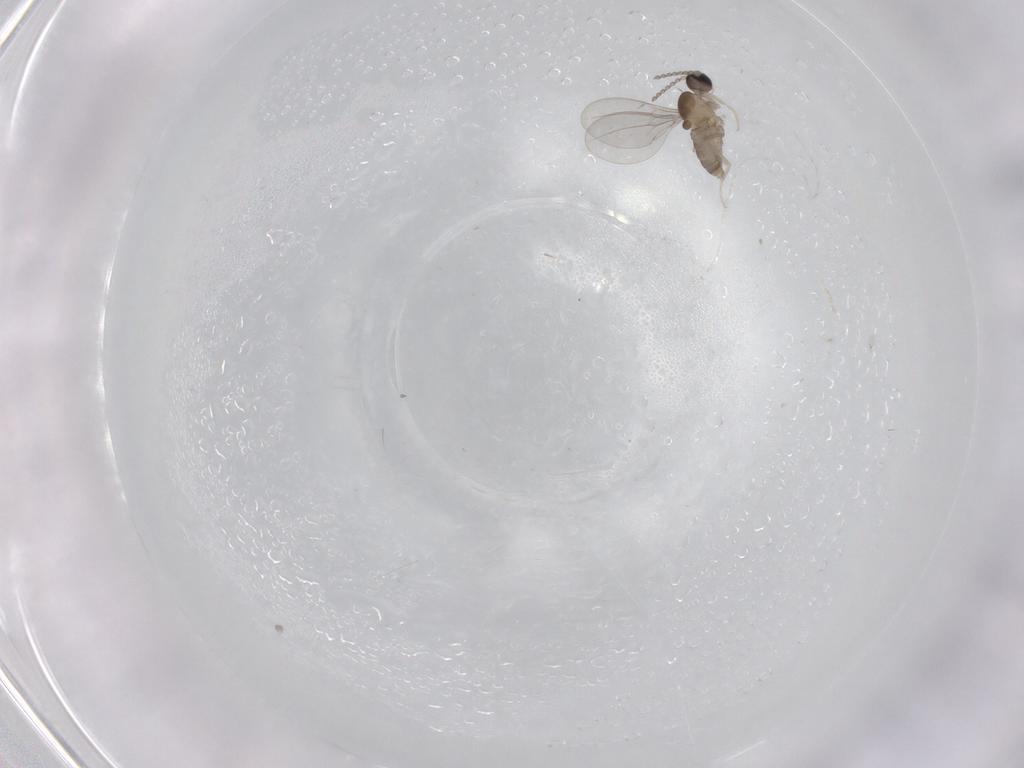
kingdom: Animalia
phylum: Arthropoda
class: Insecta
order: Diptera
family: Cecidomyiidae
